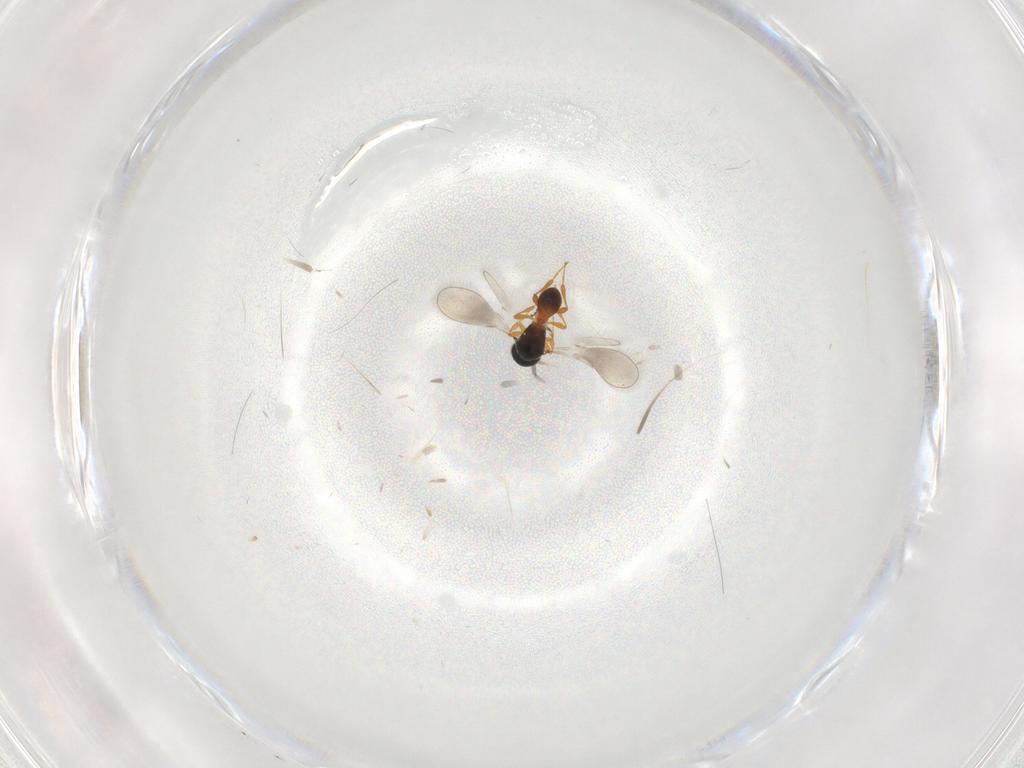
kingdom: Animalia
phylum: Arthropoda
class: Insecta
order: Hymenoptera
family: Platygastridae
